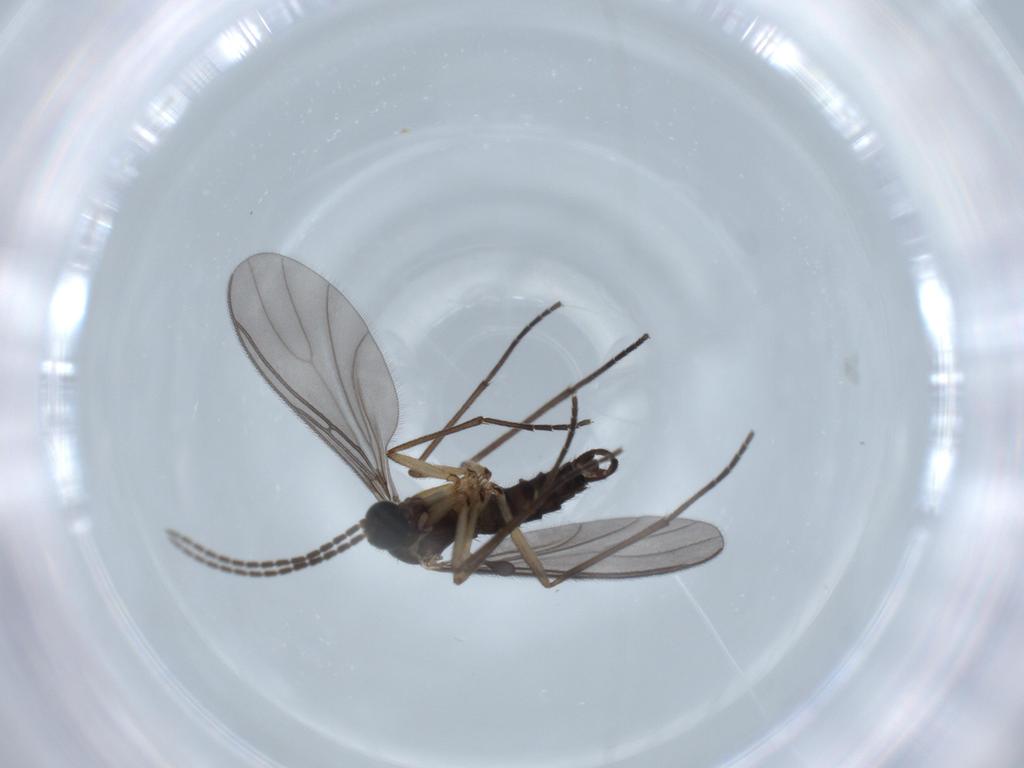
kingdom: Animalia
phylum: Arthropoda
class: Insecta
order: Diptera
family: Sciaridae
